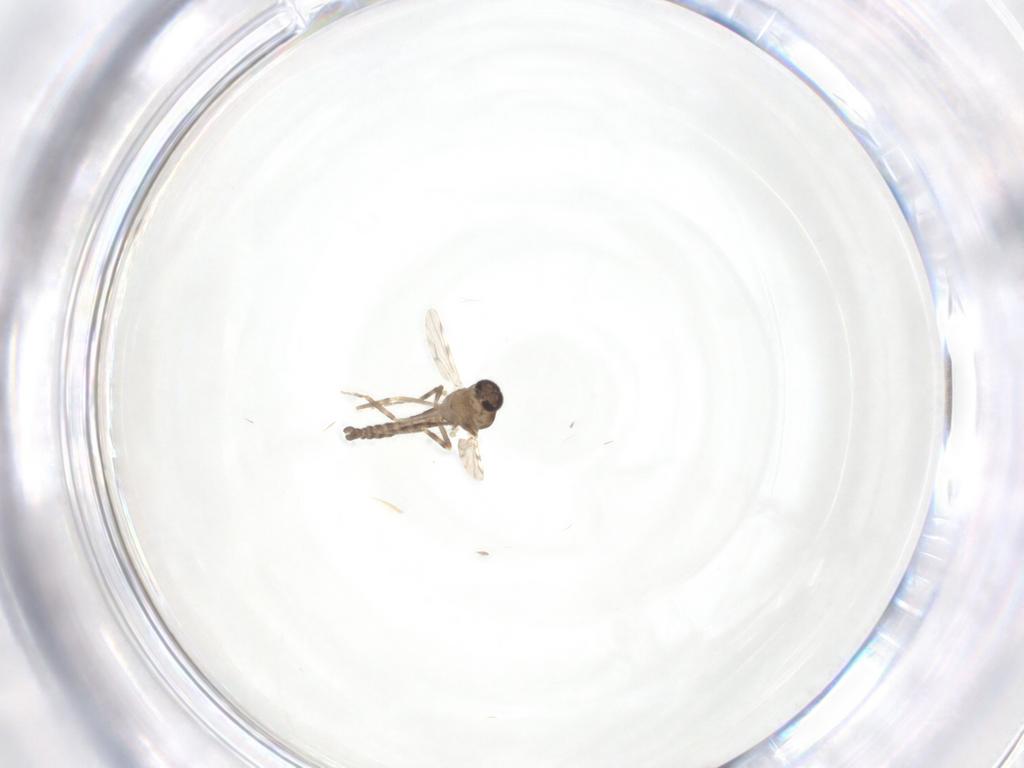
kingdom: Animalia
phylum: Arthropoda
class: Insecta
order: Diptera
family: Ceratopogonidae
